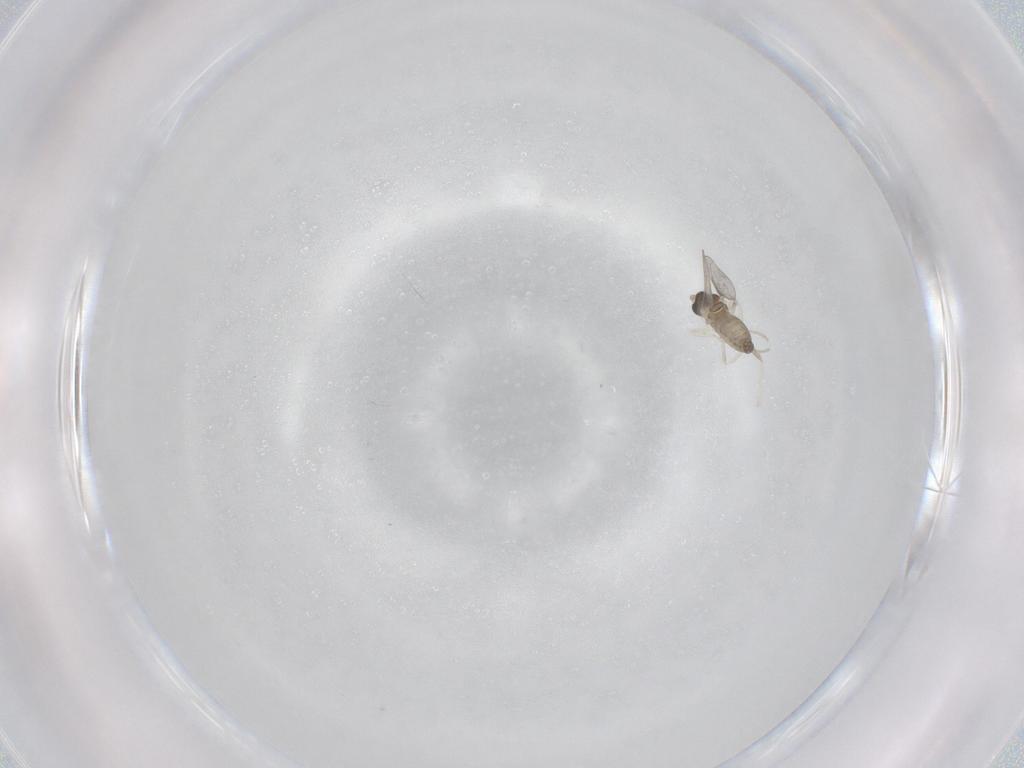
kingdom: Animalia
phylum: Arthropoda
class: Insecta
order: Diptera
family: Cecidomyiidae
